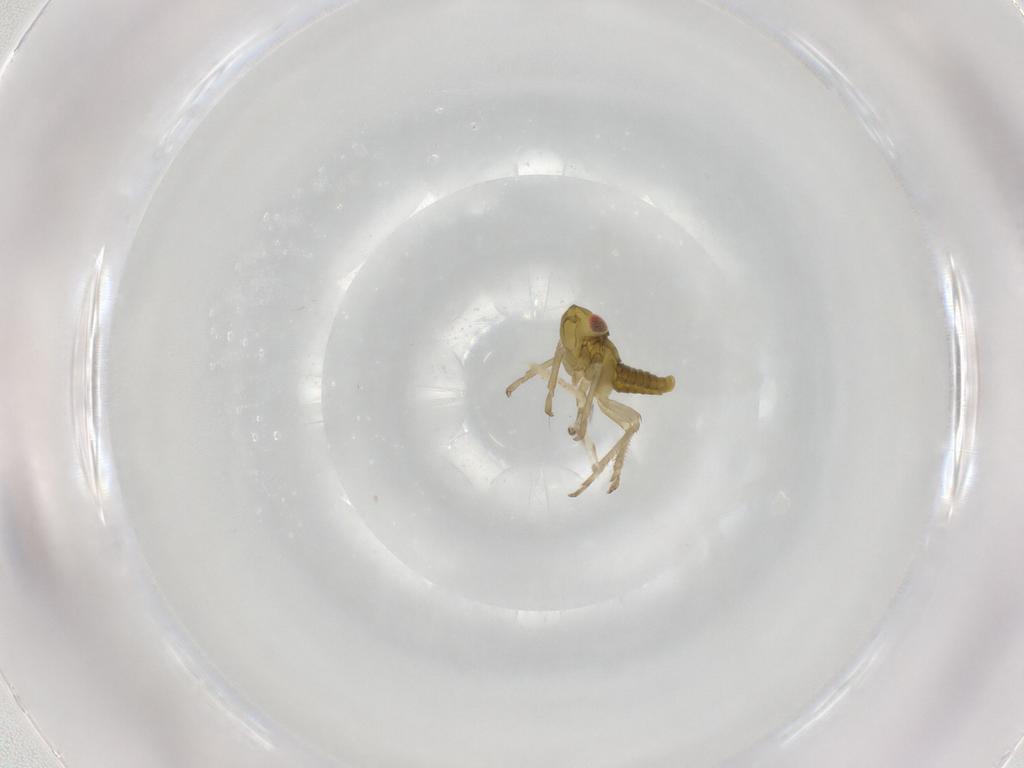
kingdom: Animalia
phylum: Arthropoda
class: Insecta
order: Hemiptera
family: Cicadellidae
